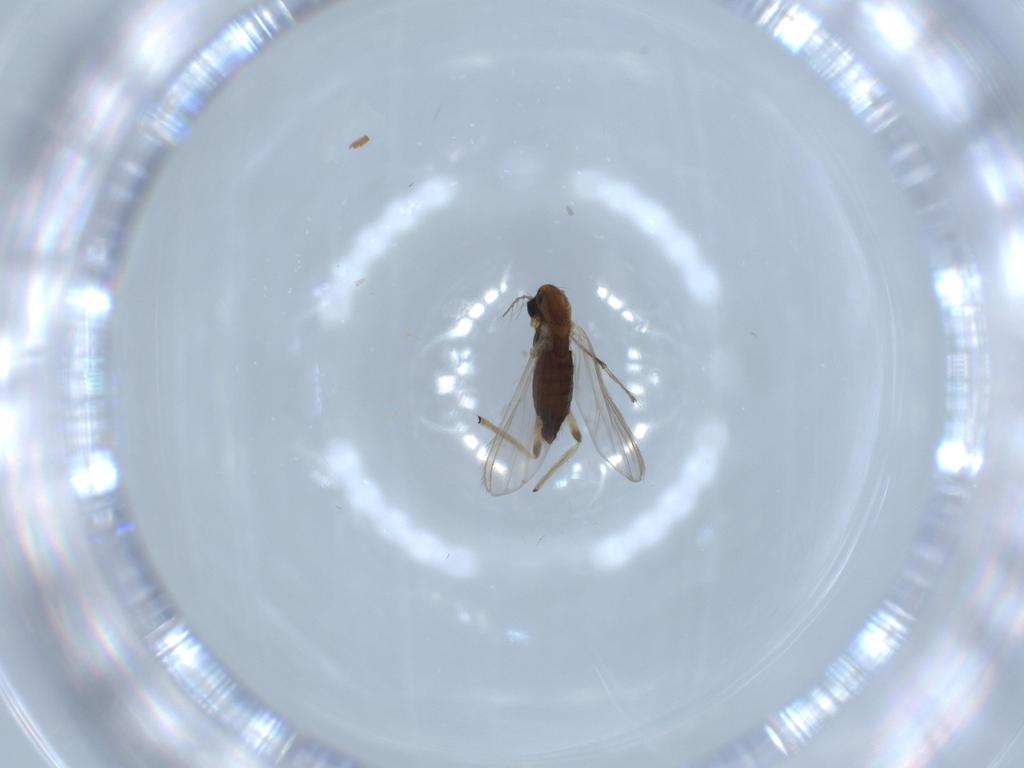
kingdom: Animalia
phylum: Arthropoda
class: Insecta
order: Diptera
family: Chironomidae
